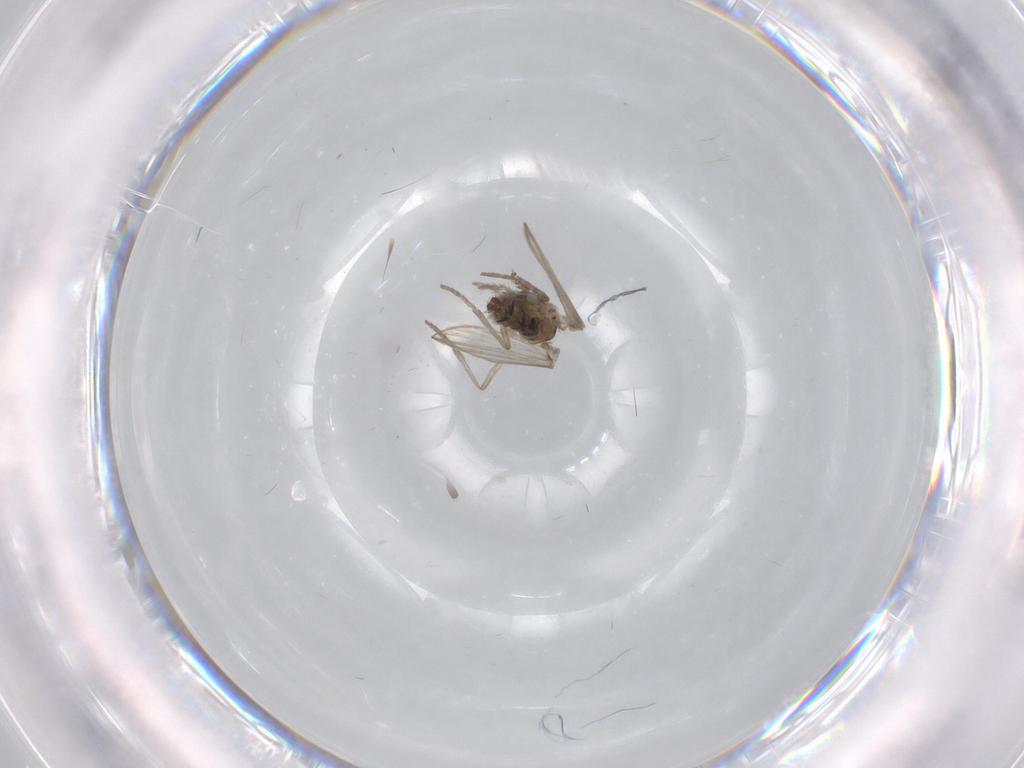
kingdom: Animalia
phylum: Arthropoda
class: Insecta
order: Diptera
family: Psychodidae
